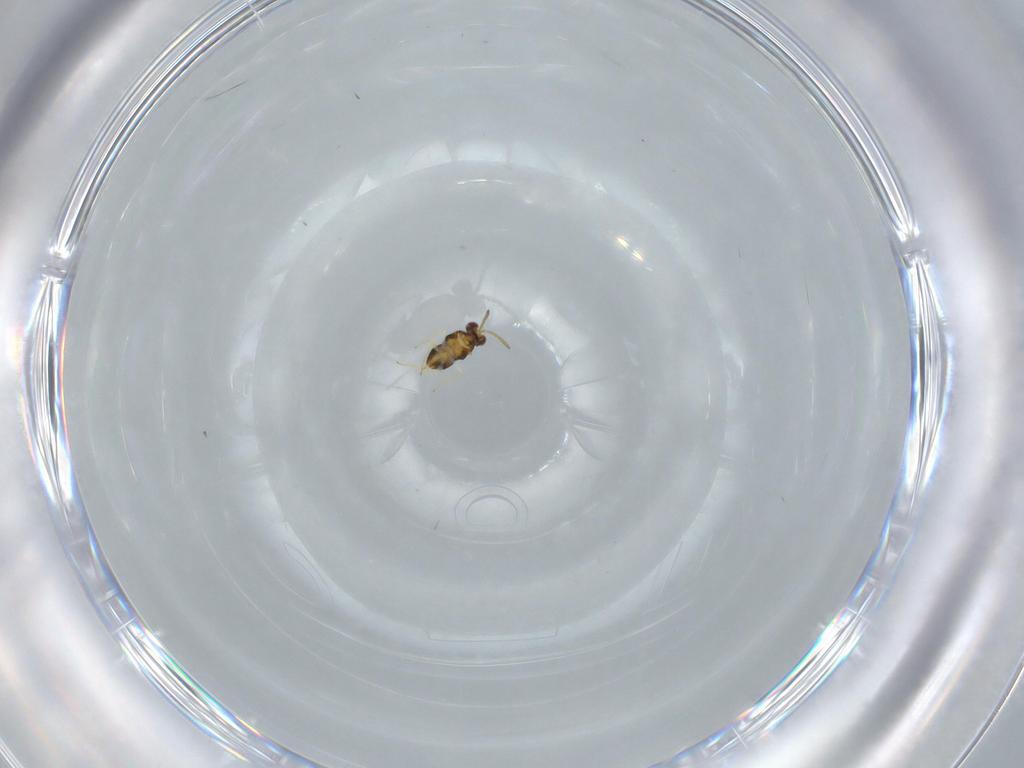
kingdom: Animalia
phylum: Arthropoda
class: Insecta
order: Hymenoptera
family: Aphelinidae
